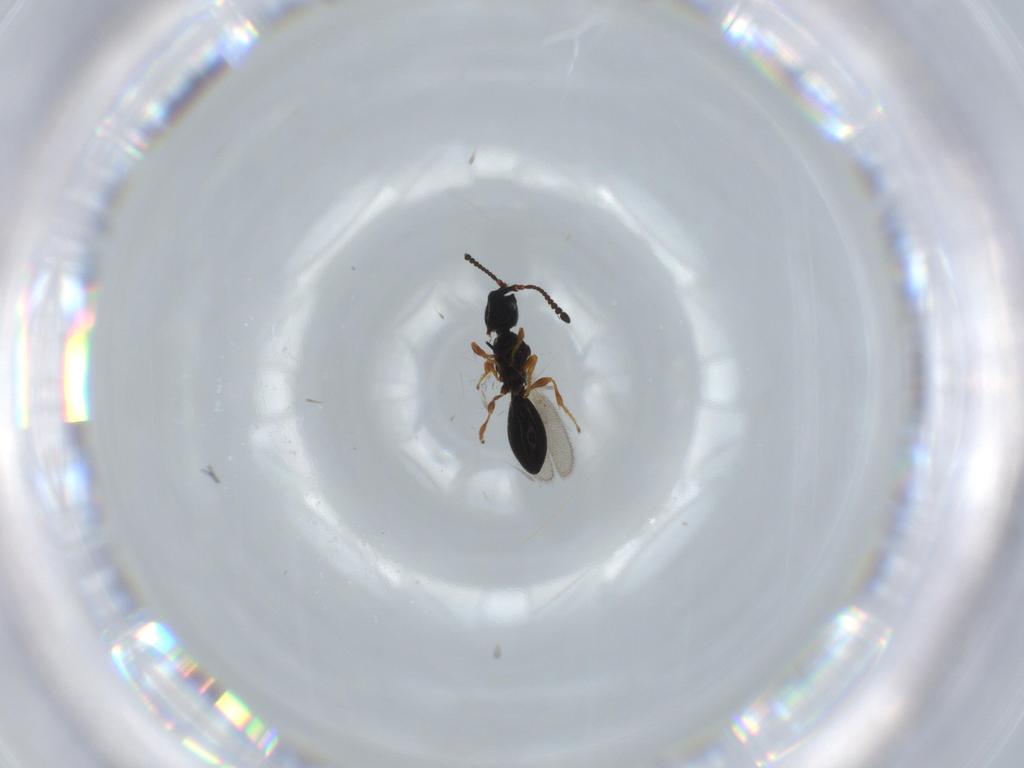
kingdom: Animalia
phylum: Arthropoda
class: Insecta
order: Hymenoptera
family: Diapriidae
